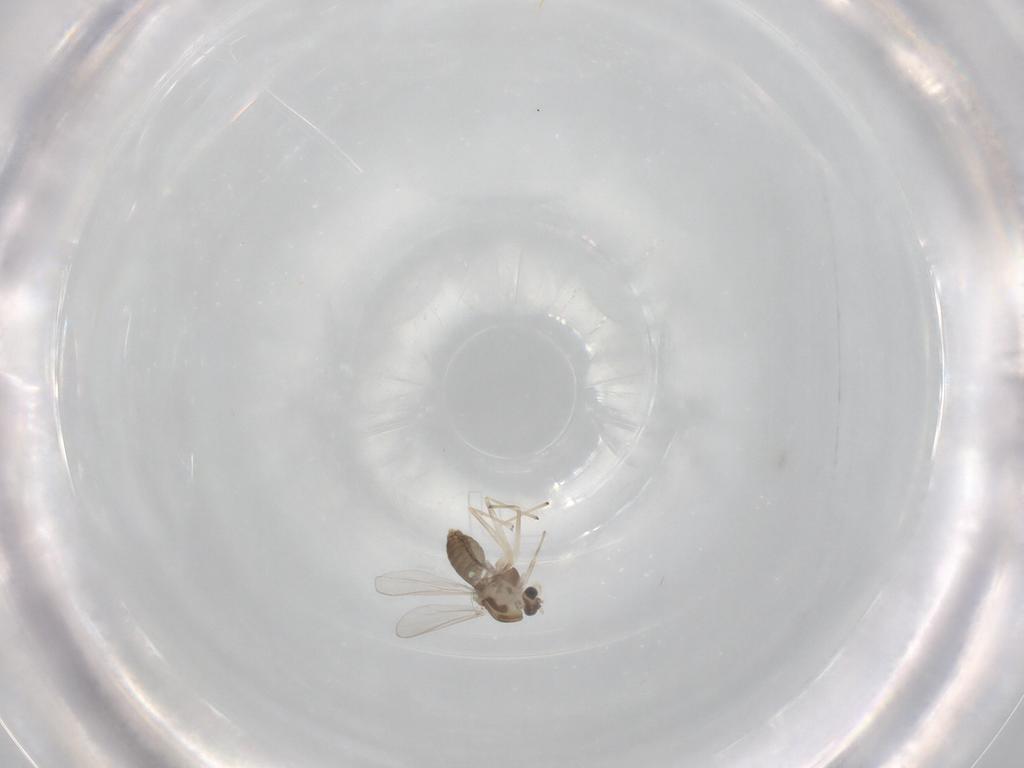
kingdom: Animalia
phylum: Arthropoda
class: Insecta
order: Diptera
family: Chironomidae
